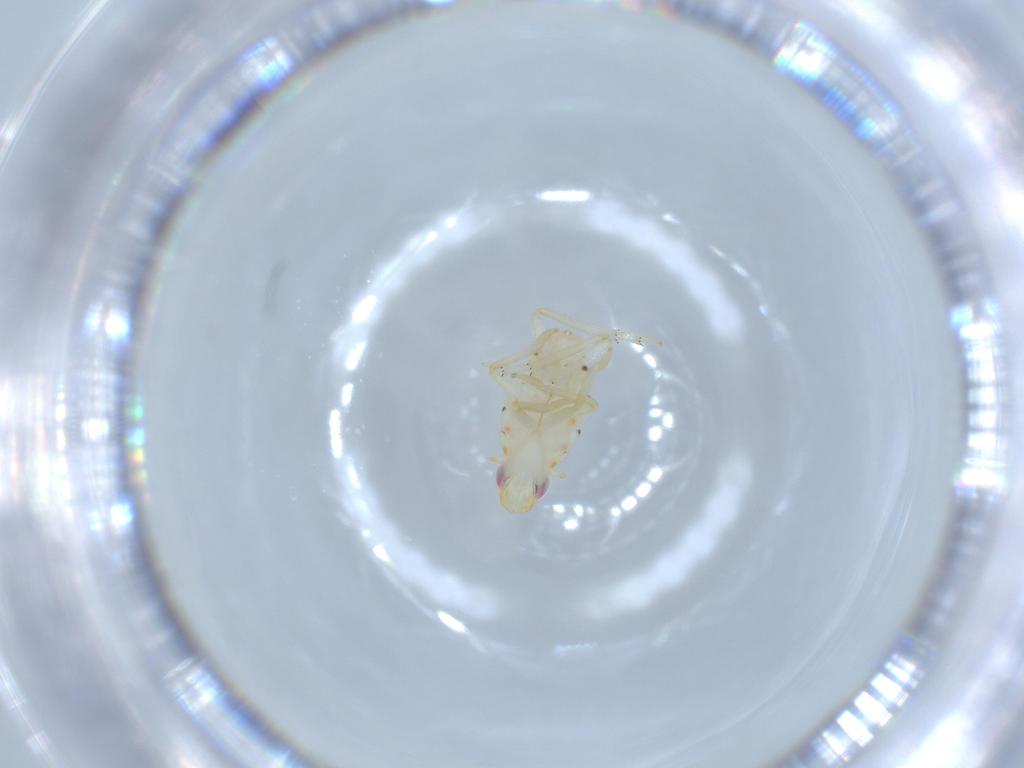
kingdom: Animalia
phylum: Arthropoda
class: Insecta
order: Hemiptera
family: Tropiduchidae
